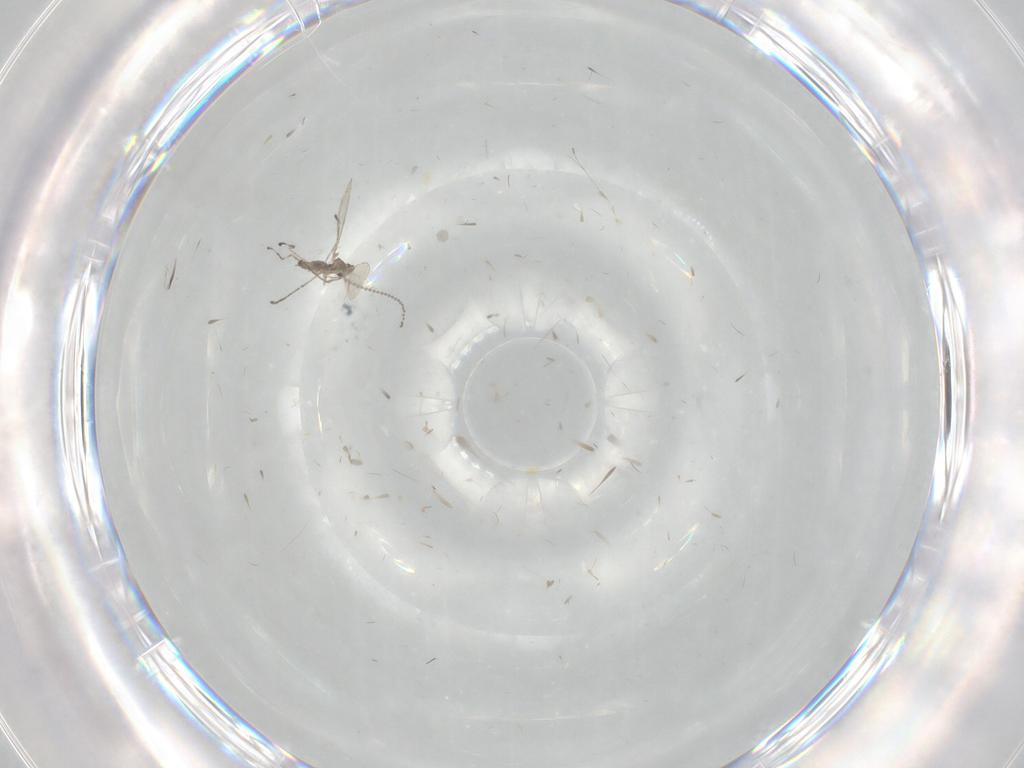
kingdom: Animalia
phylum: Arthropoda
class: Insecta
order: Diptera
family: Cecidomyiidae
